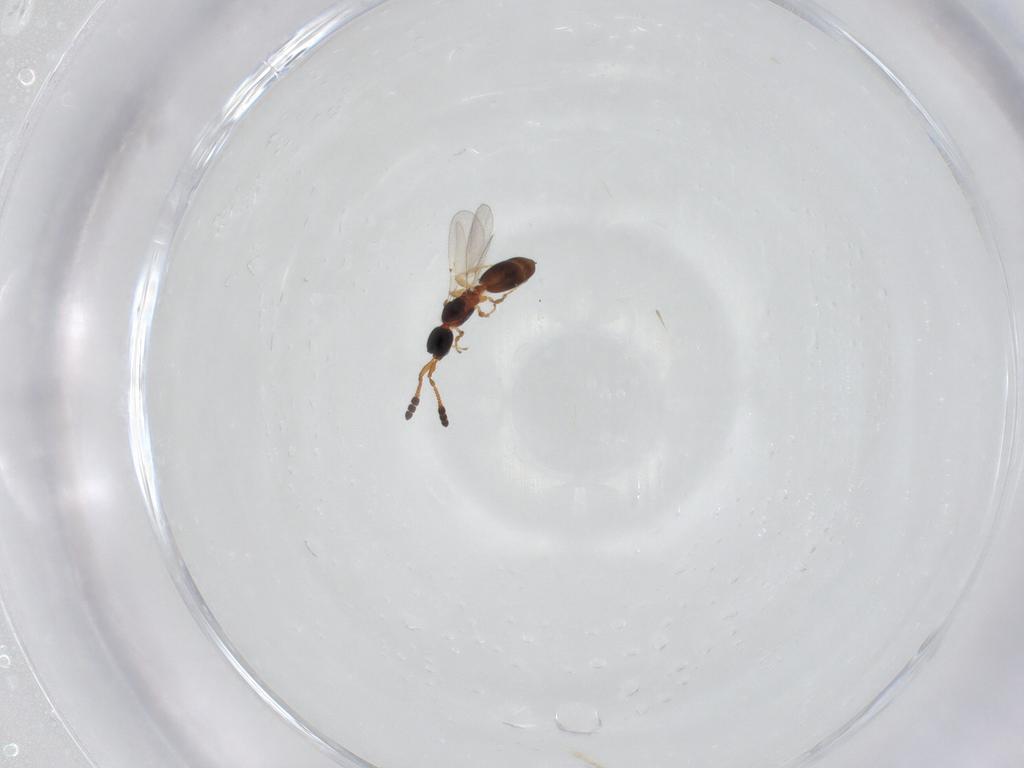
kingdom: Animalia
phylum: Arthropoda
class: Insecta
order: Hymenoptera
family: Diapriidae
